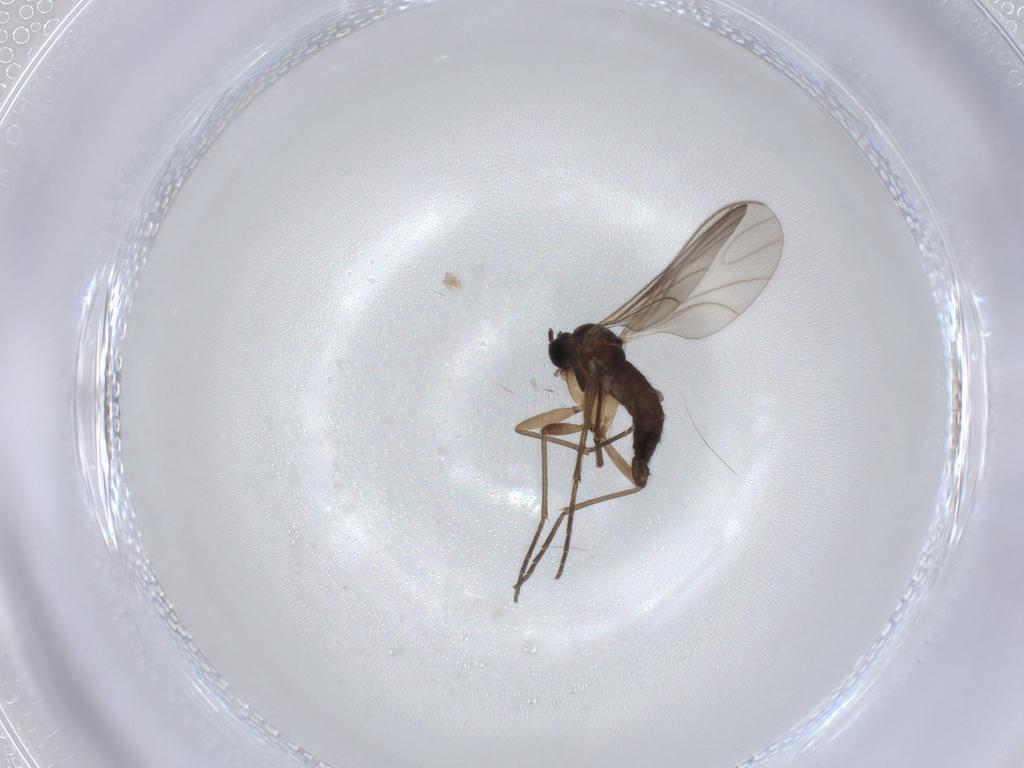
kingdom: Animalia
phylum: Arthropoda
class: Insecta
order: Diptera
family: Sciaridae
